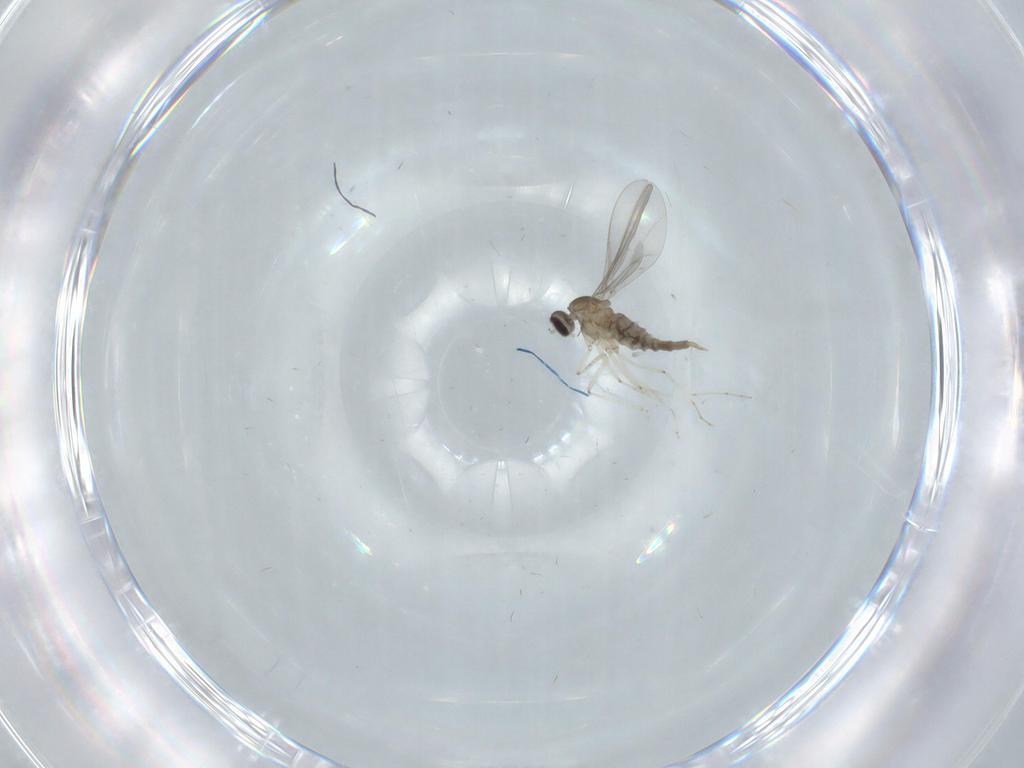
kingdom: Animalia
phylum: Arthropoda
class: Insecta
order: Diptera
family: Cecidomyiidae
